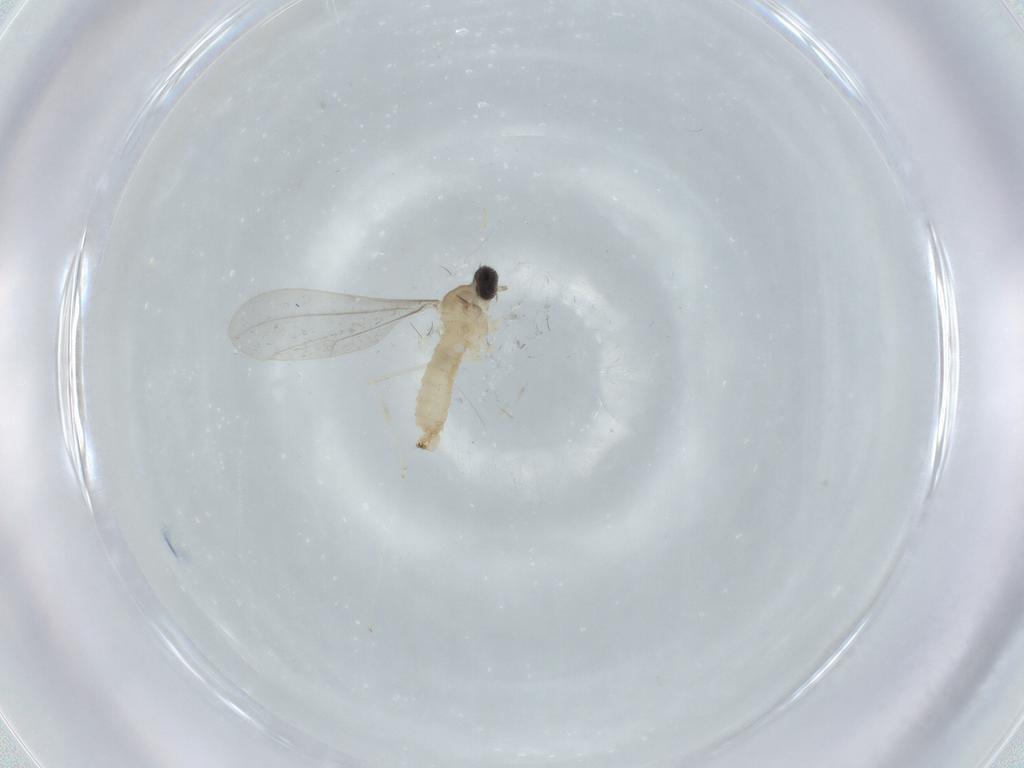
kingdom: Animalia
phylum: Arthropoda
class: Insecta
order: Diptera
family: Cecidomyiidae
